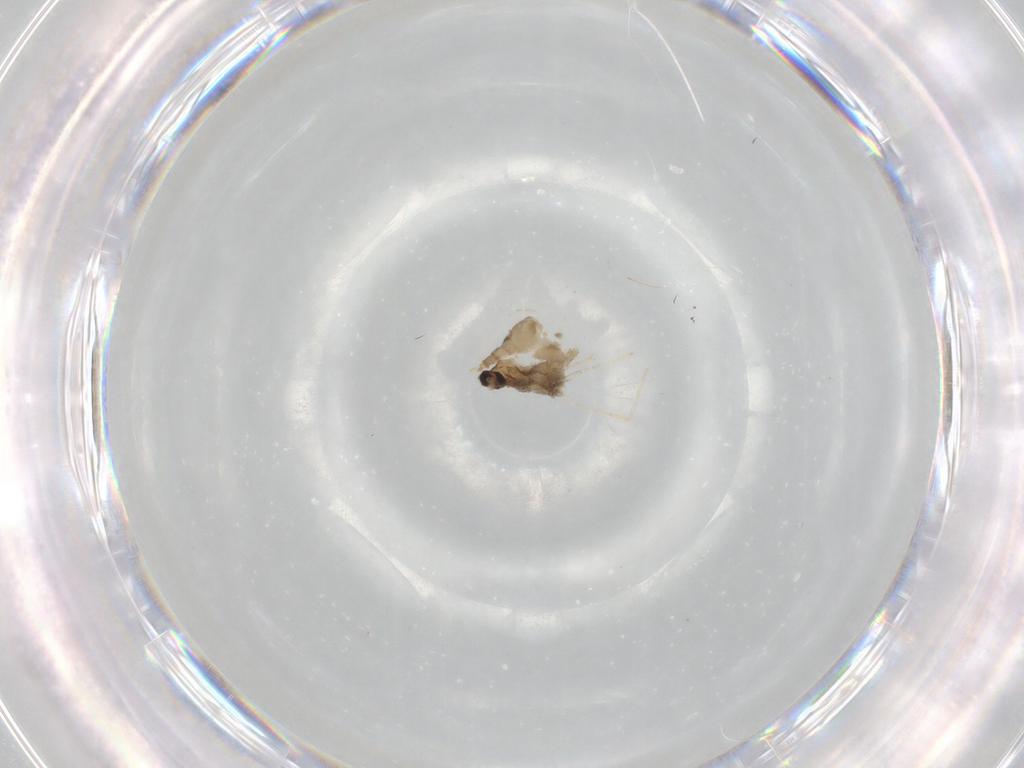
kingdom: Animalia
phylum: Arthropoda
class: Insecta
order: Diptera
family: Cecidomyiidae
